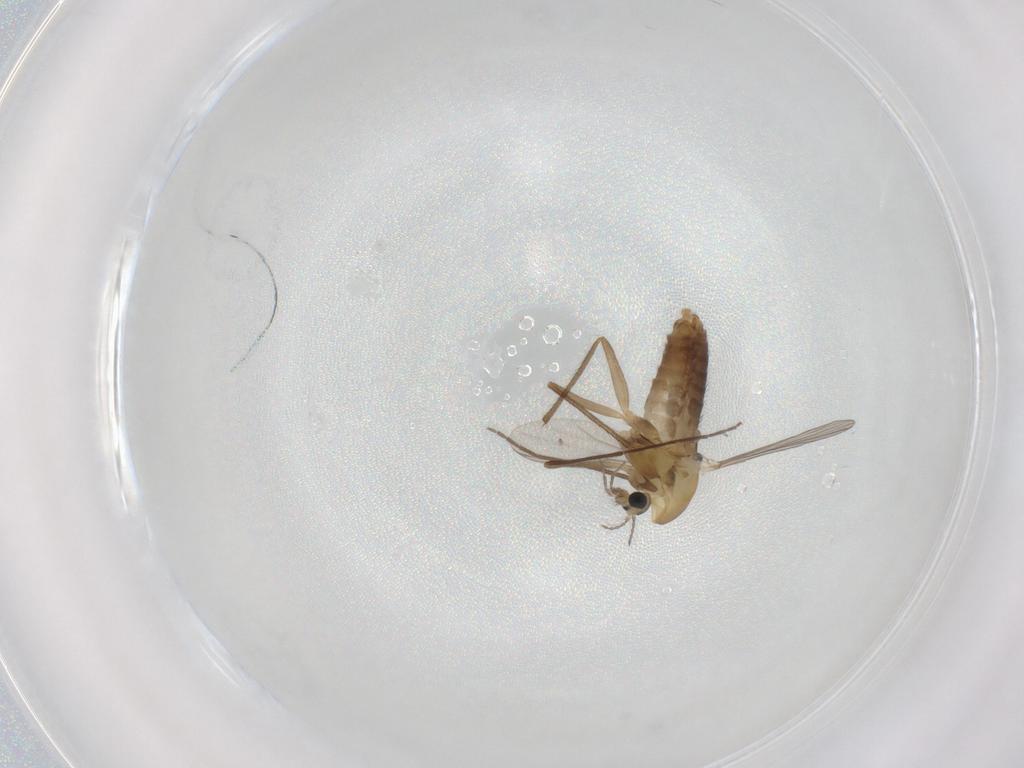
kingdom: Animalia
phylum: Arthropoda
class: Insecta
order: Diptera
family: Chironomidae
